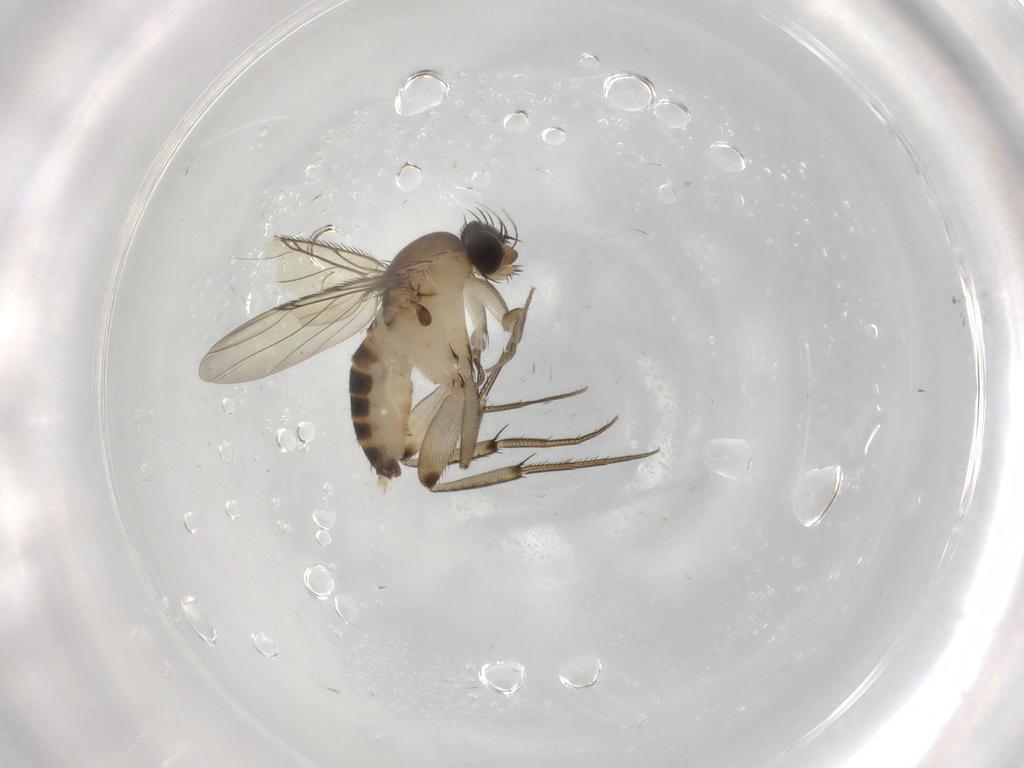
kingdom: Animalia
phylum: Arthropoda
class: Insecta
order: Diptera
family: Phoridae
